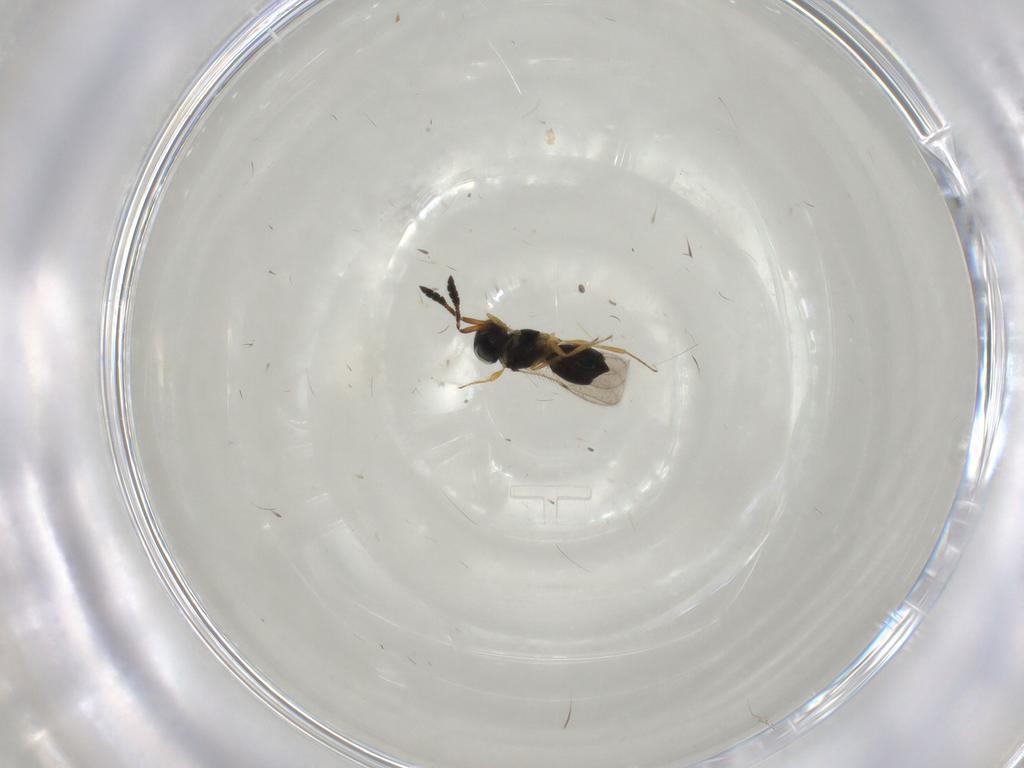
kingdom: Animalia
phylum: Arthropoda
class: Insecta
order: Hymenoptera
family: Scelionidae
